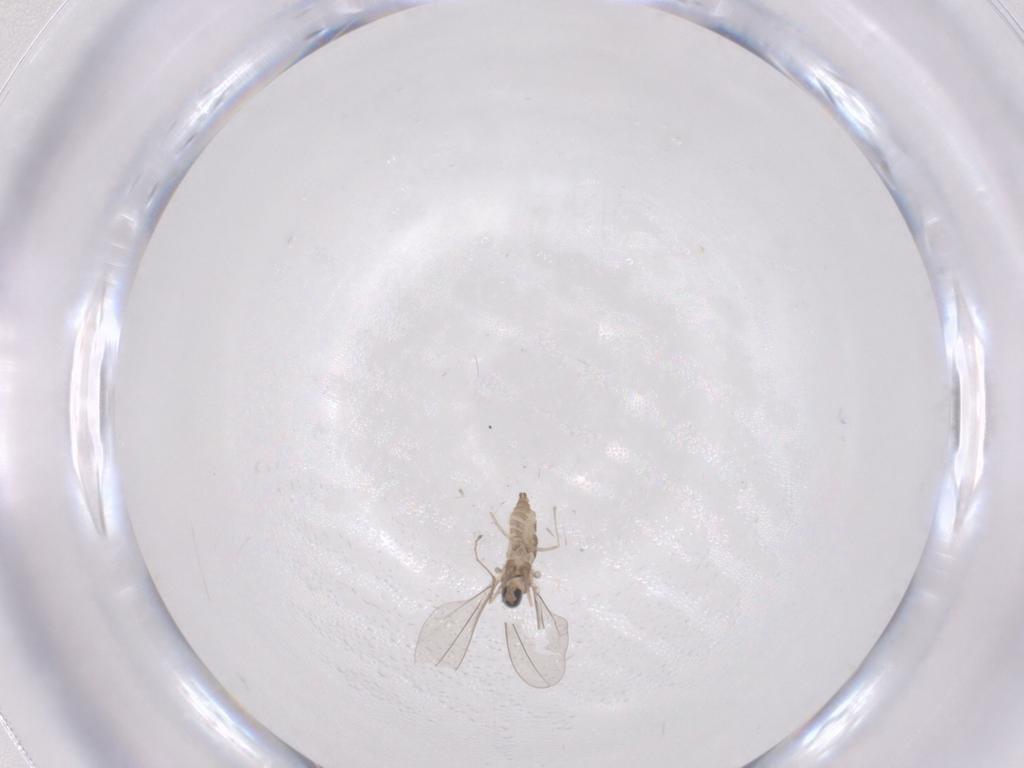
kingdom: Animalia
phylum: Arthropoda
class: Insecta
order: Diptera
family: Cecidomyiidae
